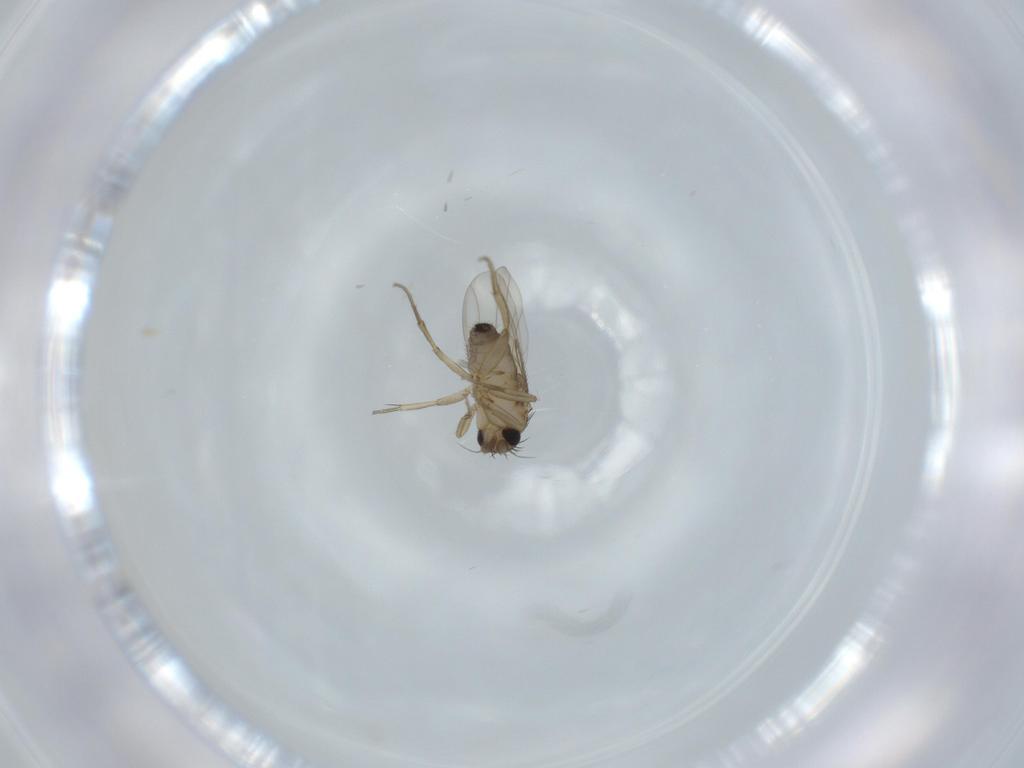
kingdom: Animalia
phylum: Arthropoda
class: Insecta
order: Diptera
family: Phoridae
